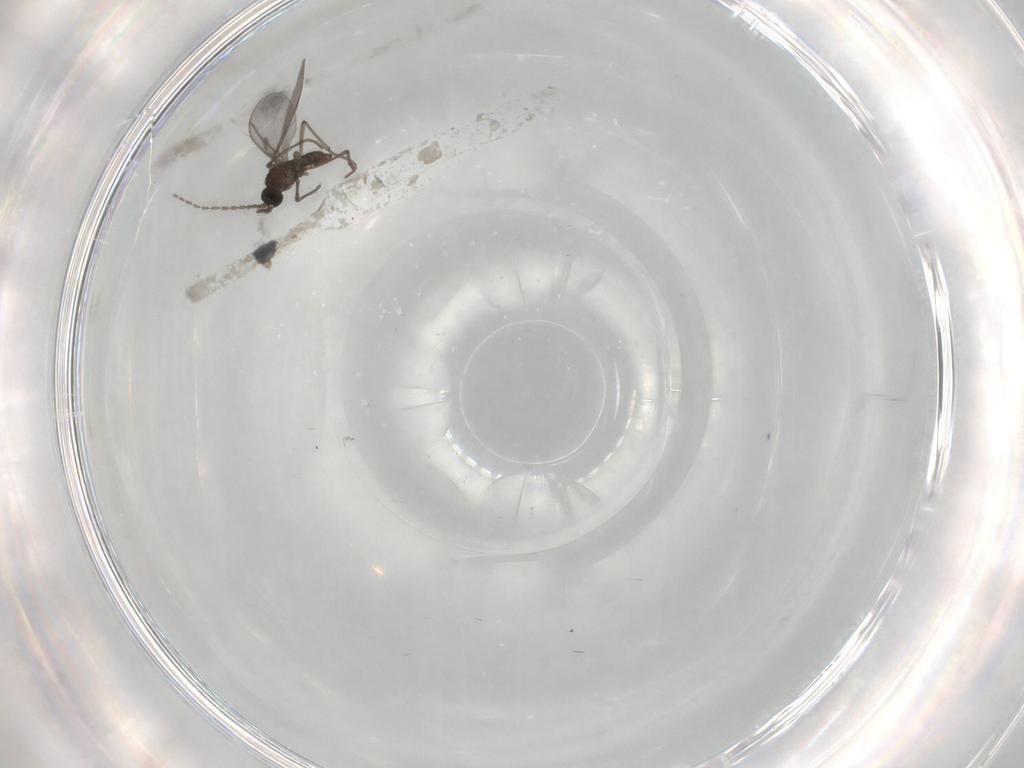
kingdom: Animalia
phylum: Arthropoda
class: Insecta
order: Diptera
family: Sciaridae
